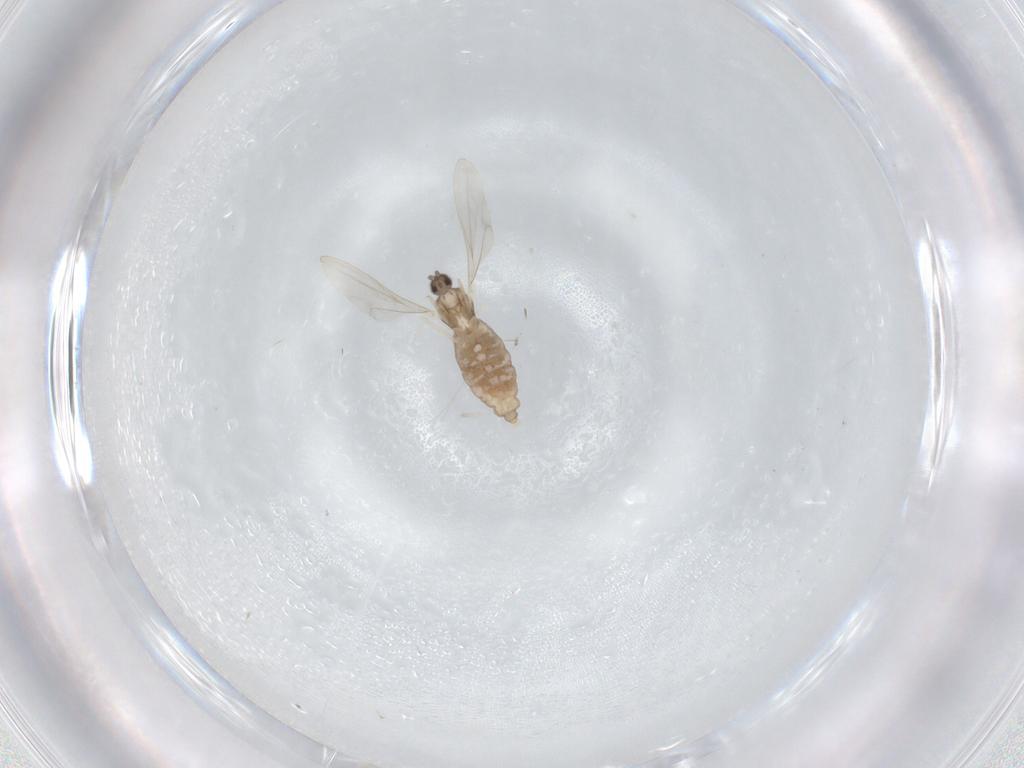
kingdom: Animalia
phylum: Arthropoda
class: Insecta
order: Diptera
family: Cecidomyiidae
